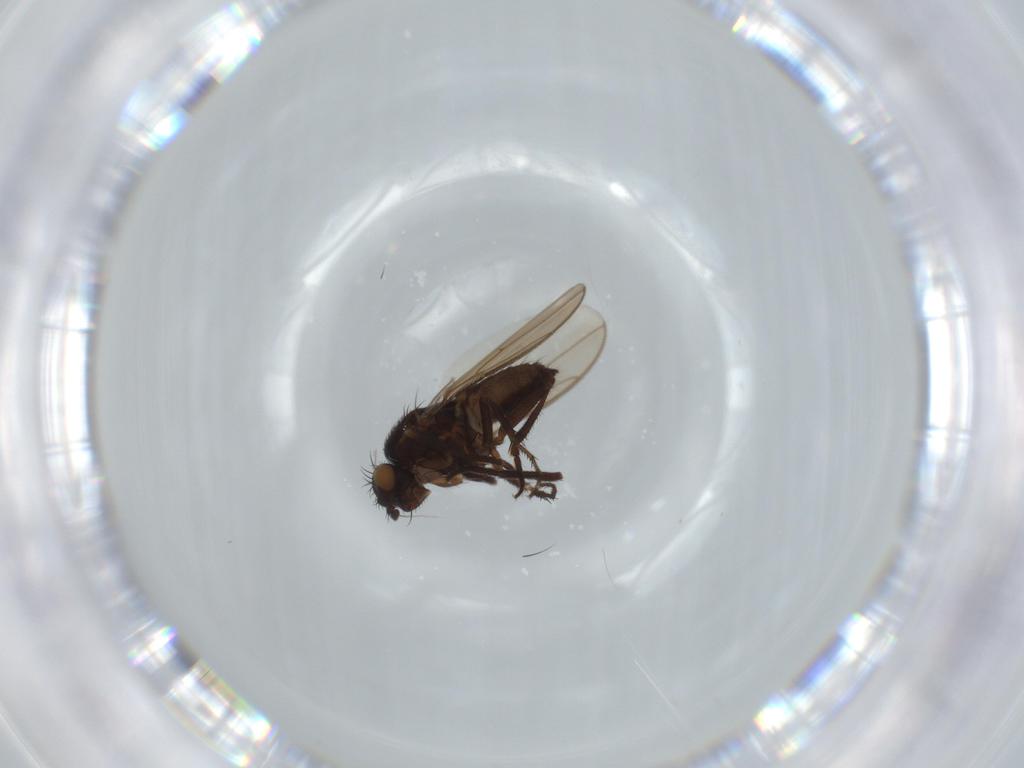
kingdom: Animalia
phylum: Arthropoda
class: Insecta
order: Diptera
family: Sphaeroceridae
